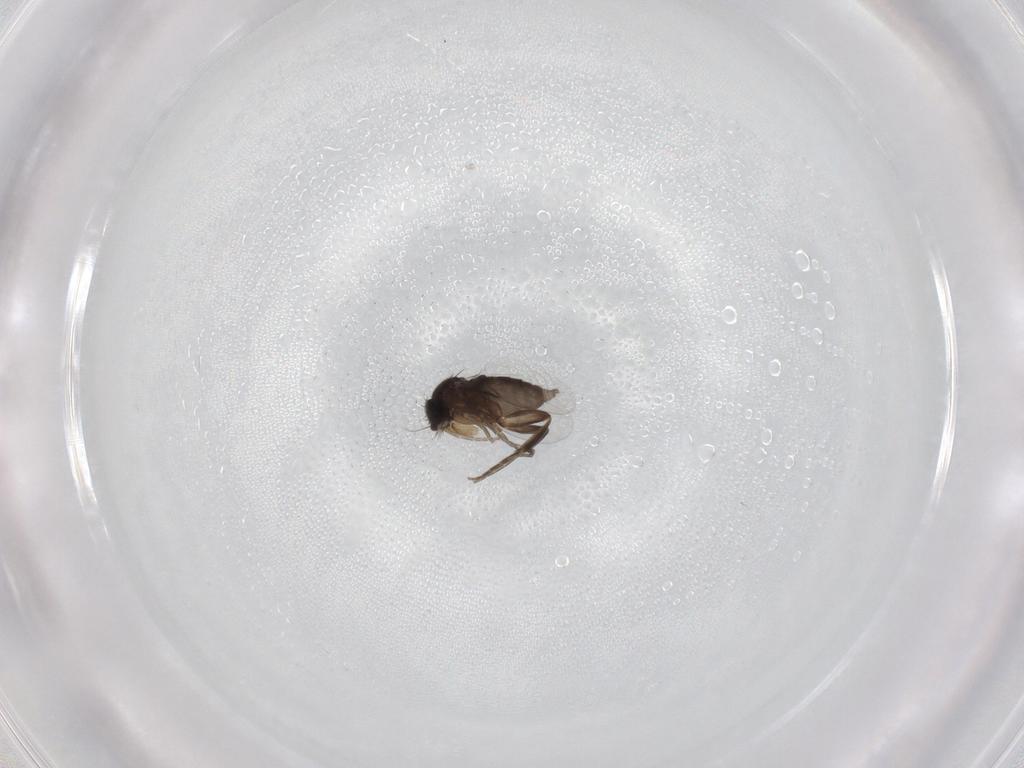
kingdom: Animalia
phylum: Arthropoda
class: Insecta
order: Diptera
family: Phoridae
